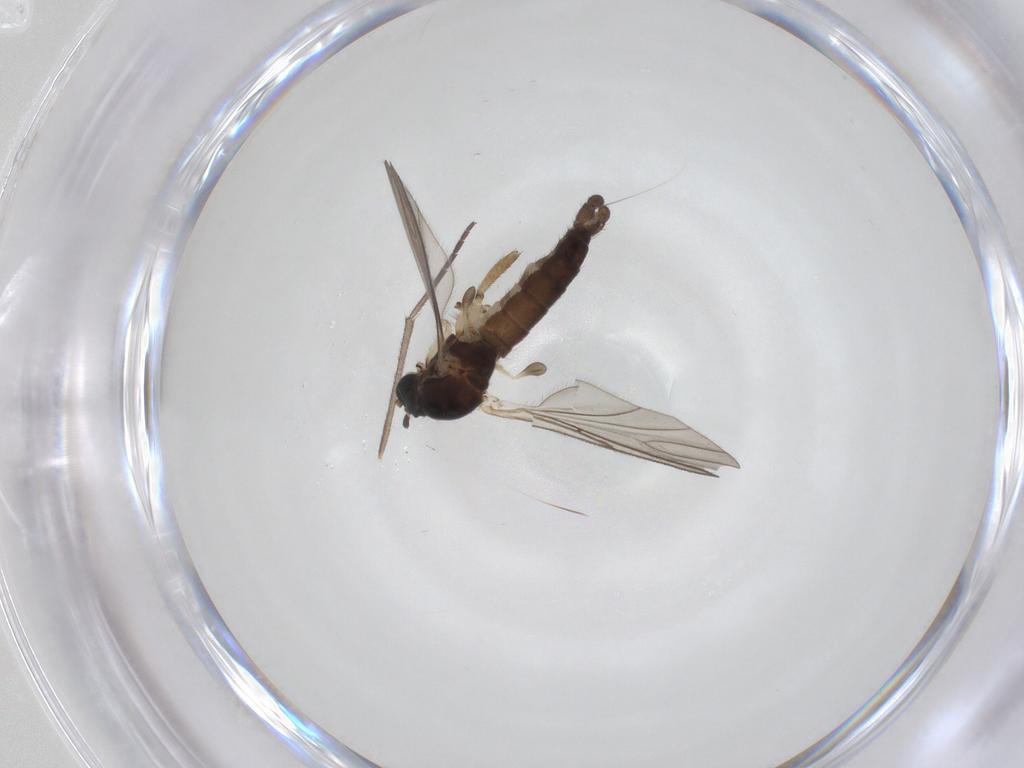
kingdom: Animalia
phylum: Arthropoda
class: Insecta
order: Diptera
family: Sciaridae
